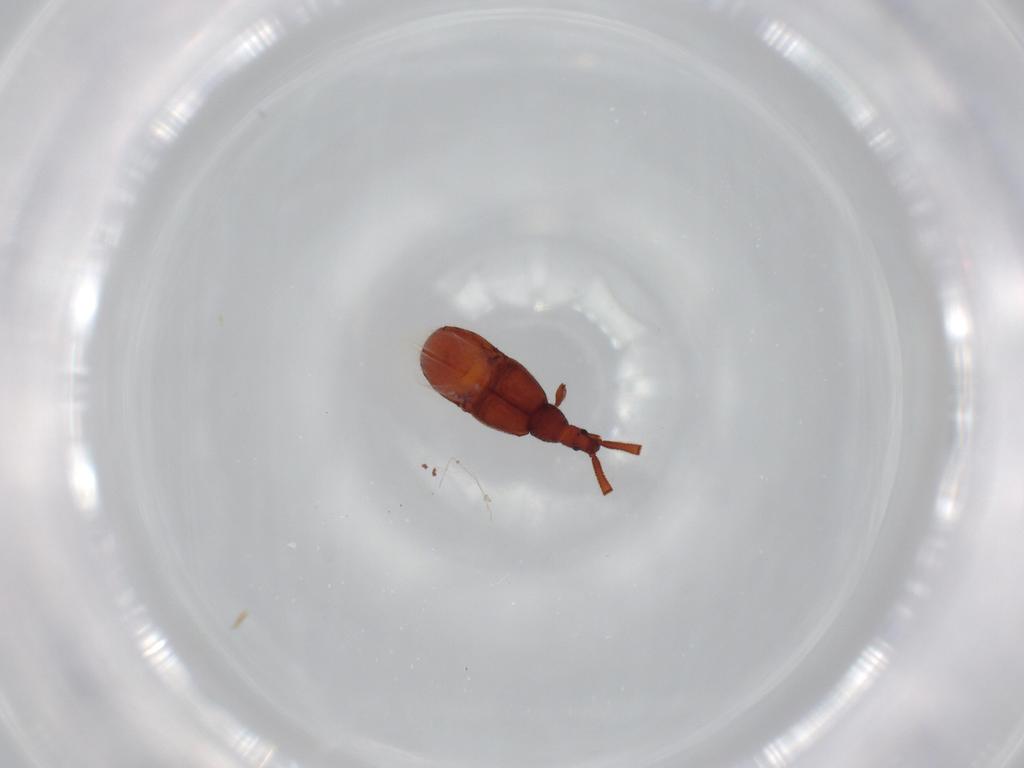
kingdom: Animalia
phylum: Arthropoda
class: Insecta
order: Coleoptera
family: Staphylinidae
